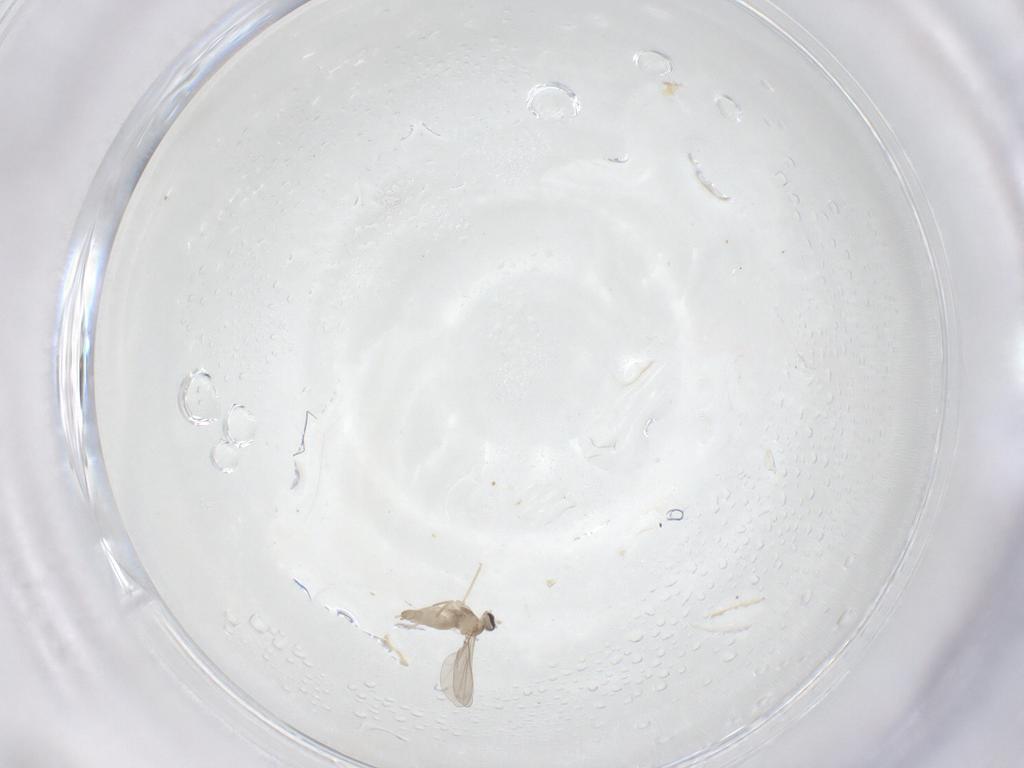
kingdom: Animalia
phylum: Arthropoda
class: Insecta
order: Diptera
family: Cecidomyiidae
